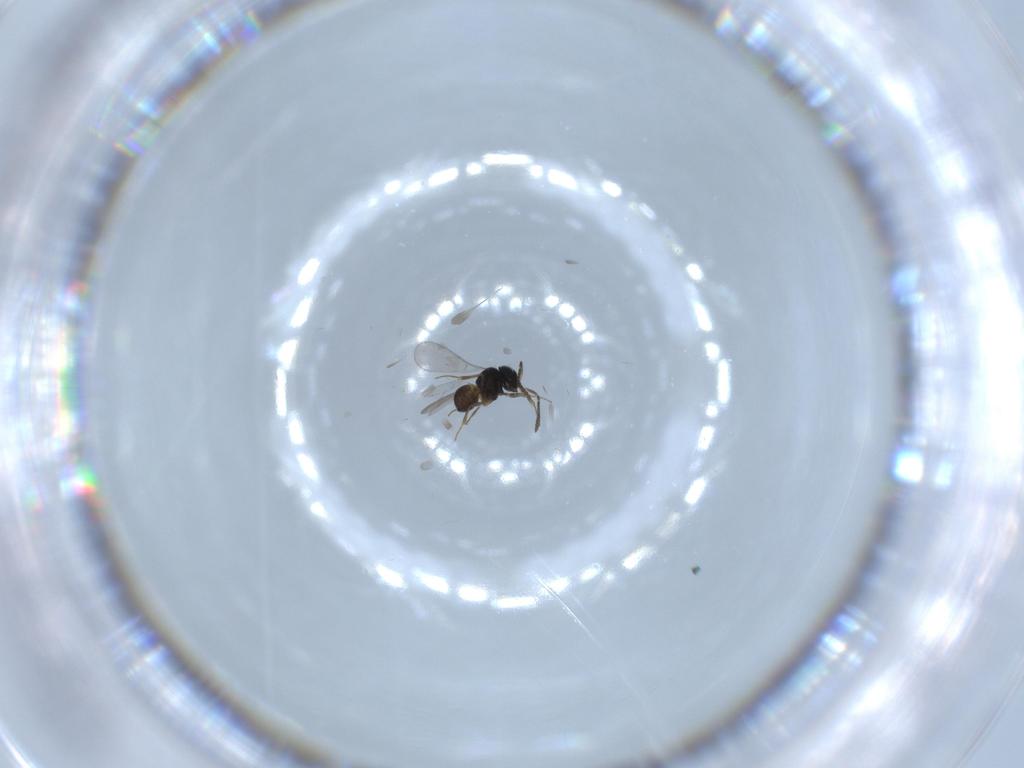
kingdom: Animalia
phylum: Arthropoda
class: Insecta
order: Hymenoptera
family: Scelionidae
